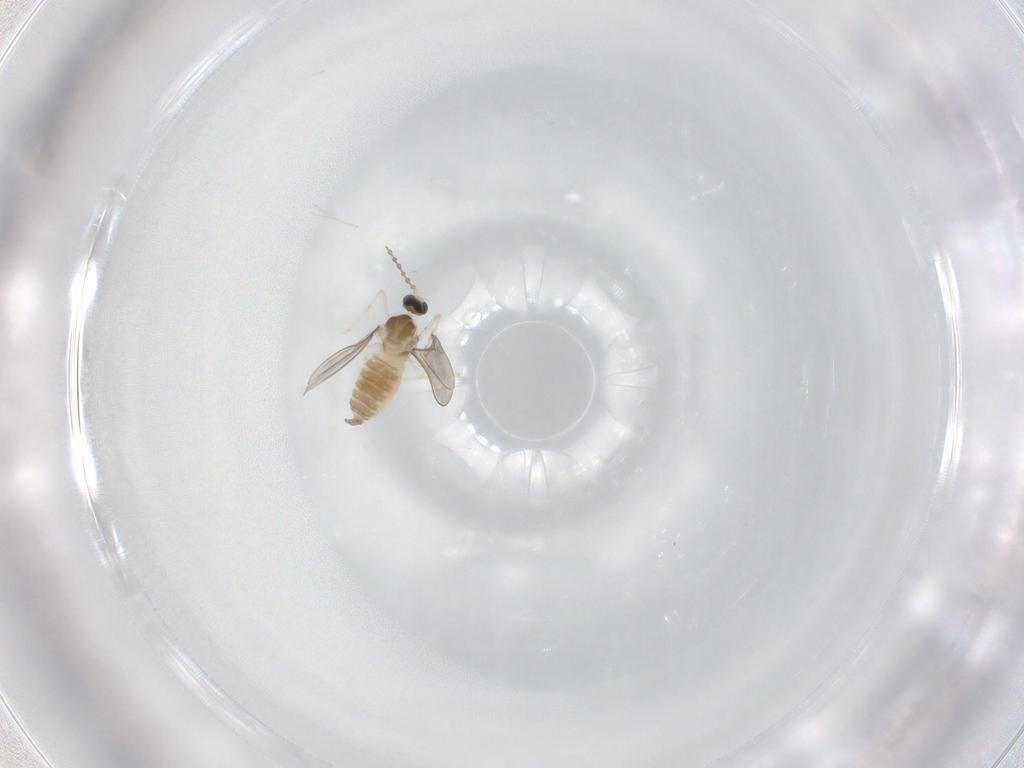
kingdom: Animalia
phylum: Arthropoda
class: Insecta
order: Diptera
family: Cecidomyiidae
